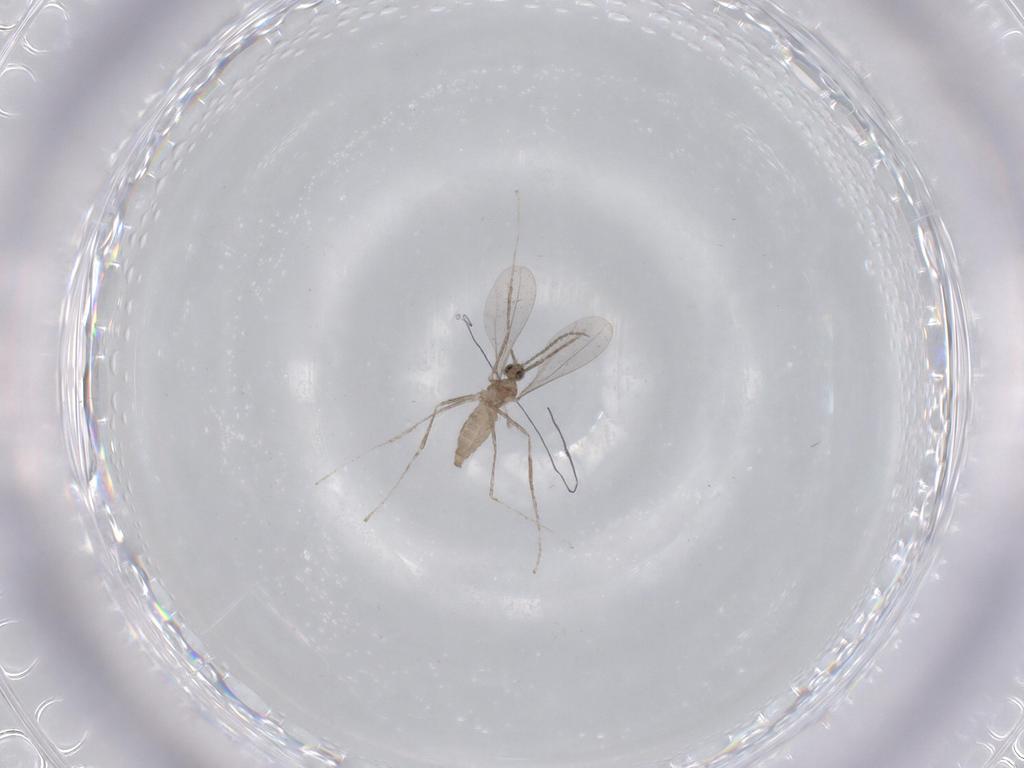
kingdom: Animalia
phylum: Arthropoda
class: Insecta
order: Diptera
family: Cecidomyiidae
